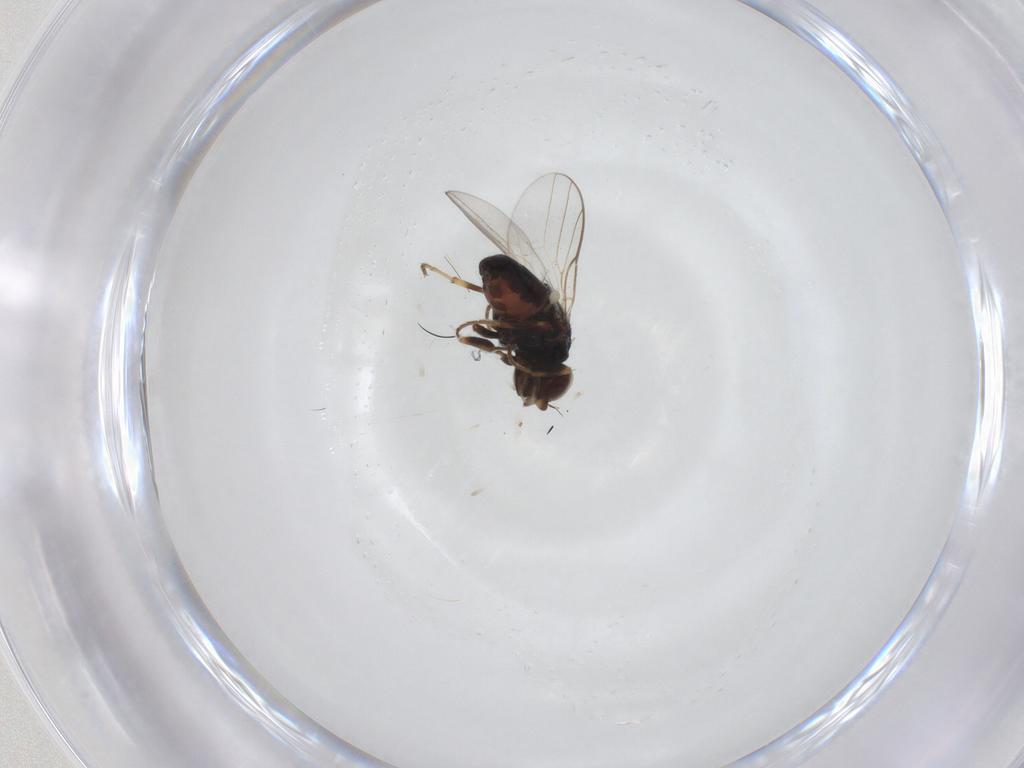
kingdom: Animalia
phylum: Arthropoda
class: Insecta
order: Diptera
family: Chloropidae
